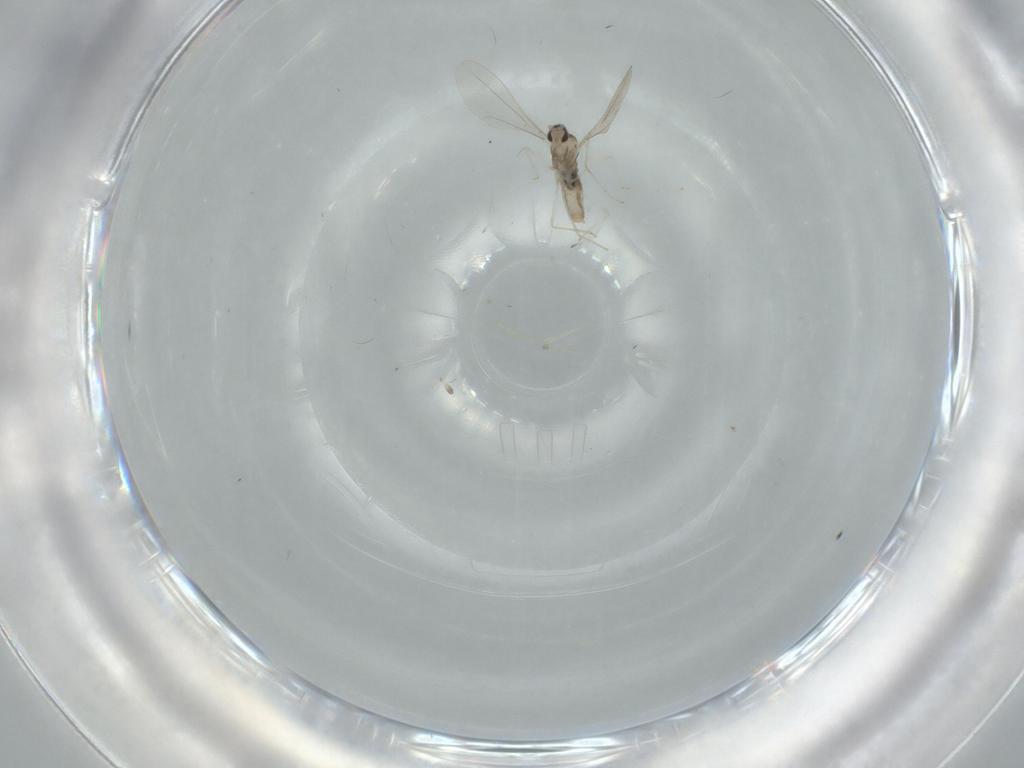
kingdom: Animalia
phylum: Arthropoda
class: Insecta
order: Diptera
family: Cecidomyiidae
